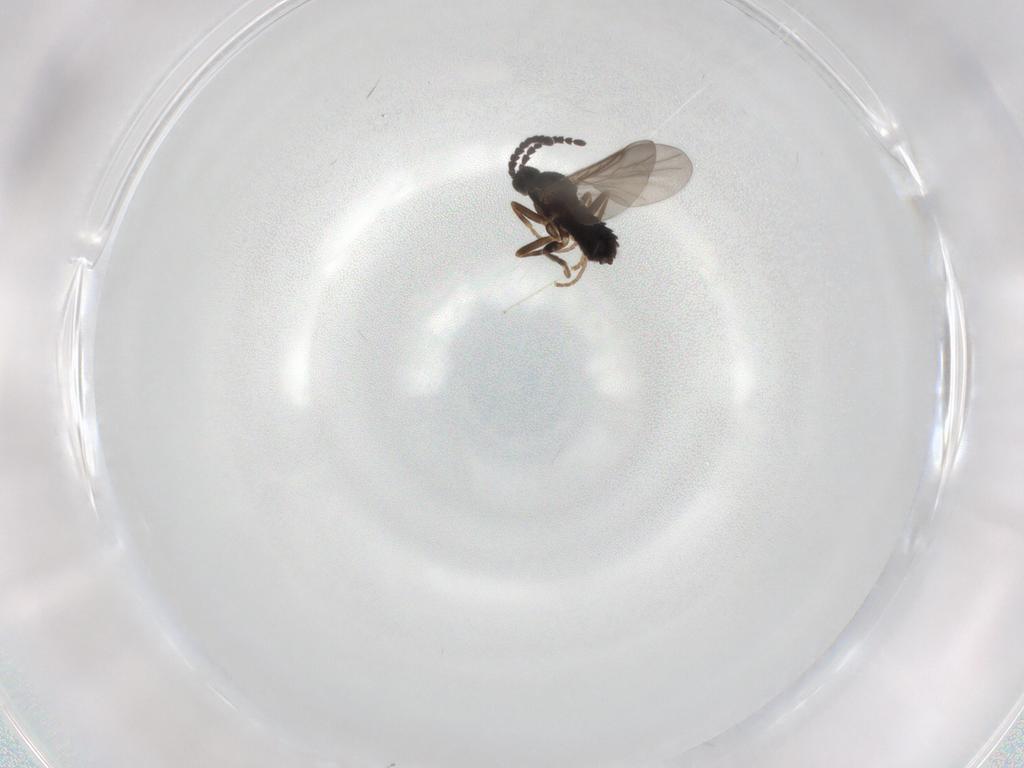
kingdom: Animalia
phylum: Arthropoda
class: Insecta
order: Diptera
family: Scatopsidae
